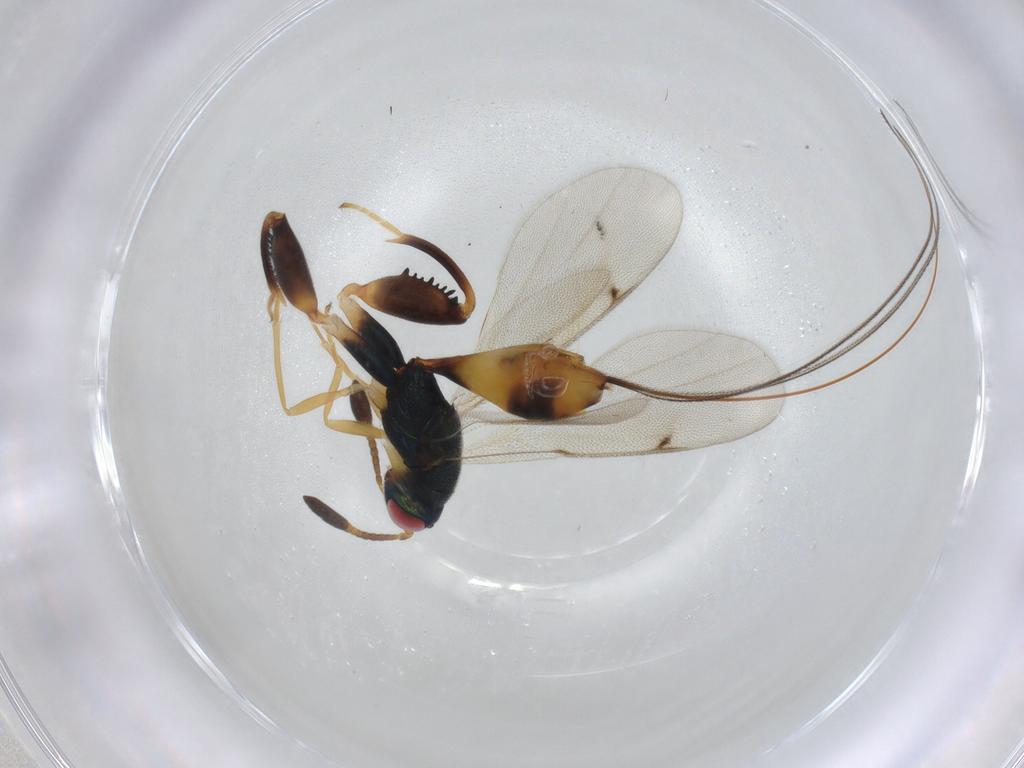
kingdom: Animalia
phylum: Arthropoda
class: Insecta
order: Hymenoptera
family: Torymidae
